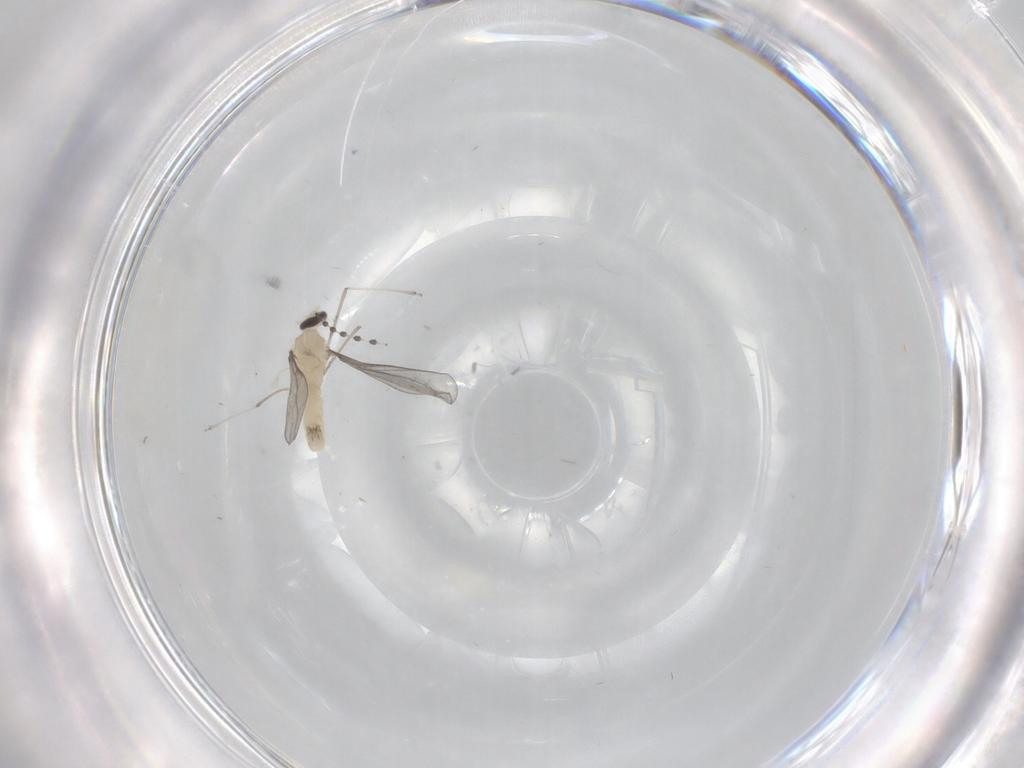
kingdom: Animalia
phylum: Arthropoda
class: Insecta
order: Diptera
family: Cecidomyiidae
